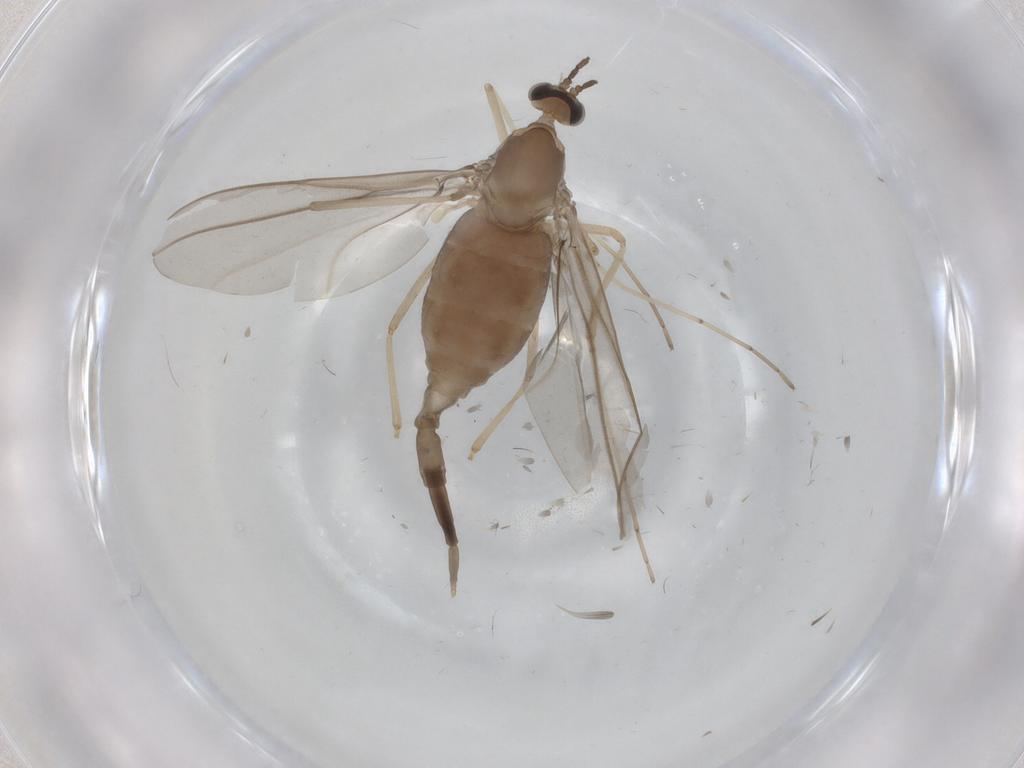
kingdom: Animalia
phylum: Arthropoda
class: Insecta
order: Diptera
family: Cecidomyiidae
